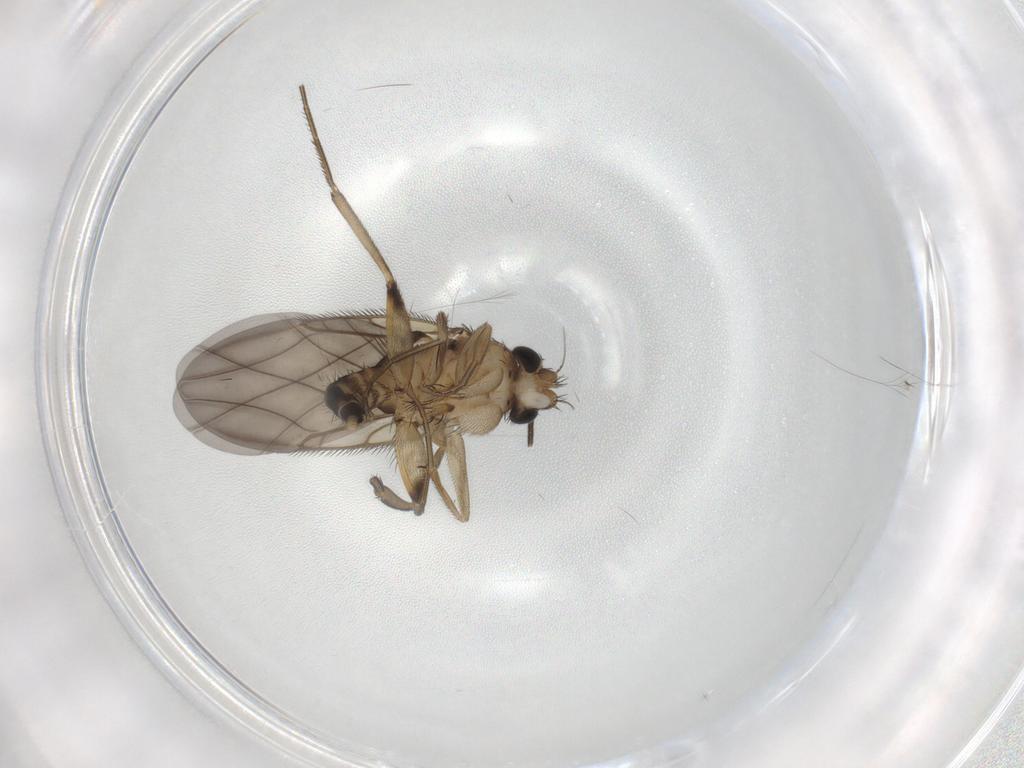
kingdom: Animalia
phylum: Arthropoda
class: Insecta
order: Diptera
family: Phoridae
